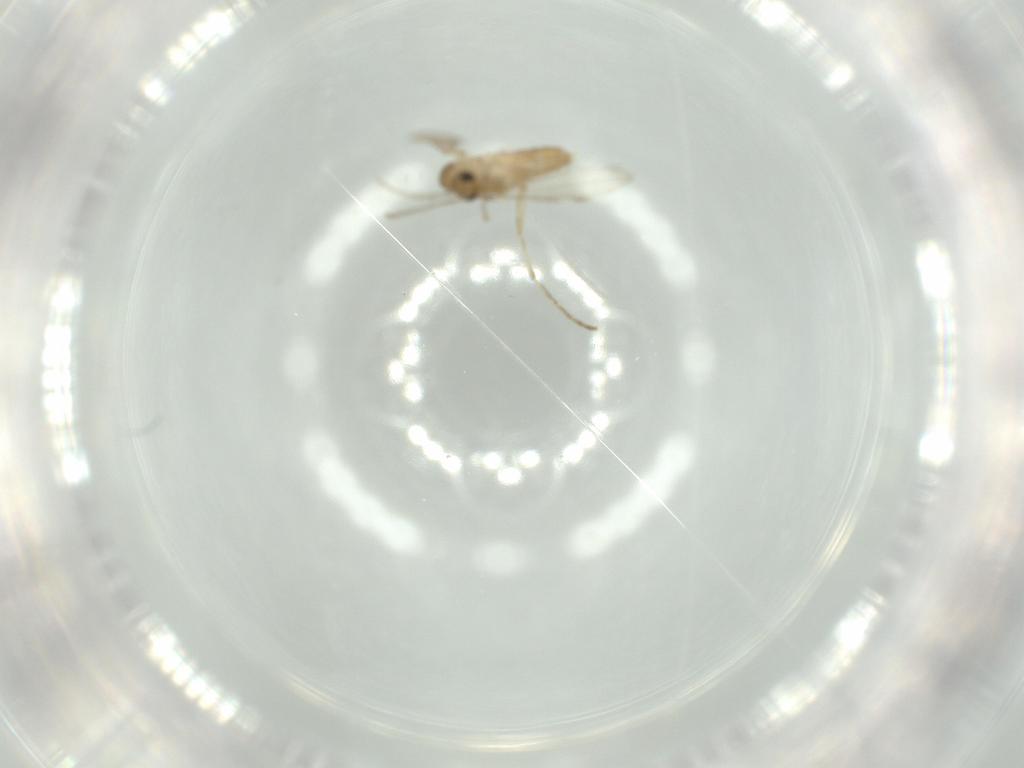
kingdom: Animalia
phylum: Arthropoda
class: Insecta
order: Diptera
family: Psychodidae
